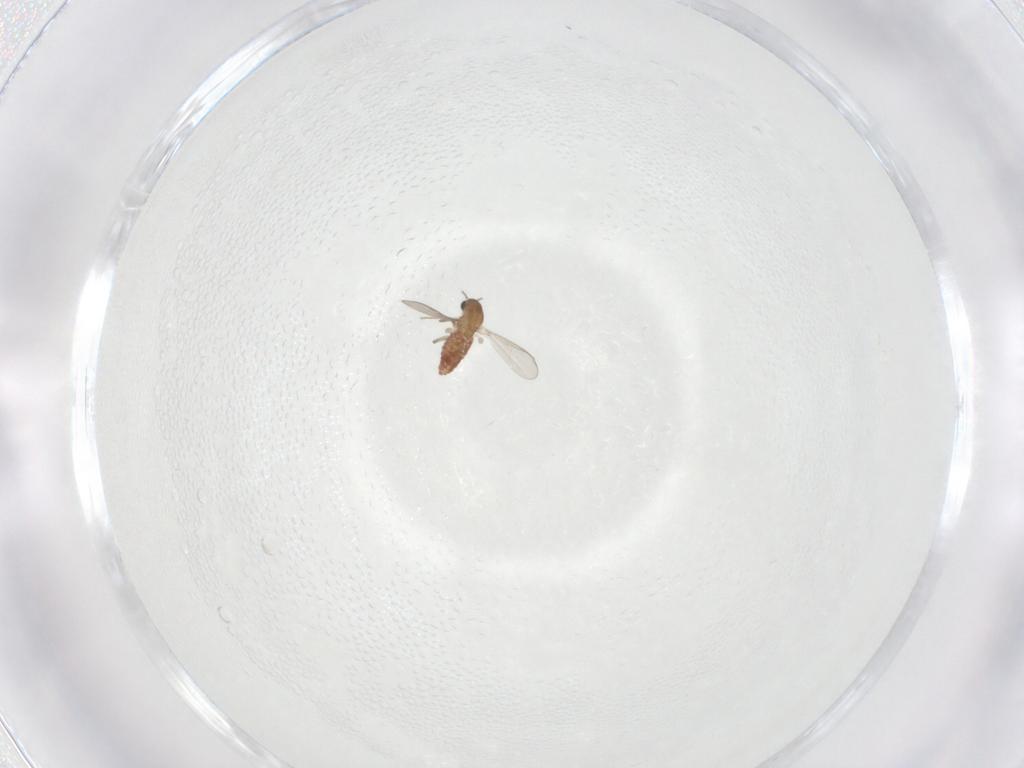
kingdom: Animalia
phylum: Arthropoda
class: Insecta
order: Diptera
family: Chironomidae
